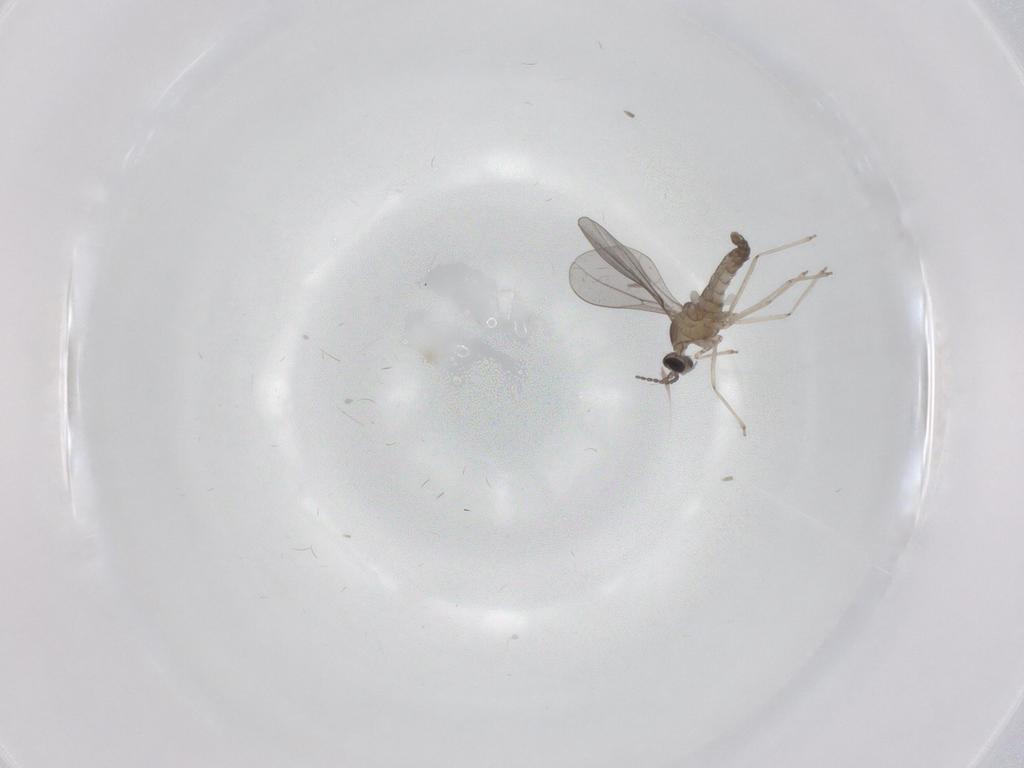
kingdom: Animalia
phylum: Arthropoda
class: Insecta
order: Diptera
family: Cecidomyiidae
